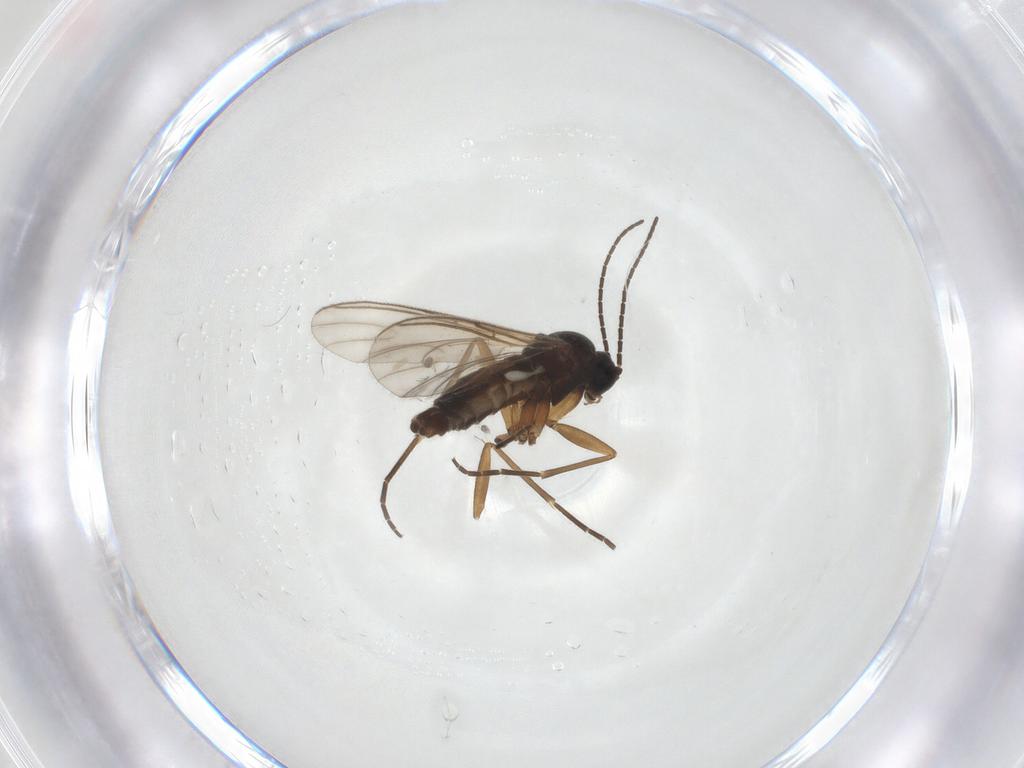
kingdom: Animalia
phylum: Arthropoda
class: Insecta
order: Diptera
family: Sciaridae
